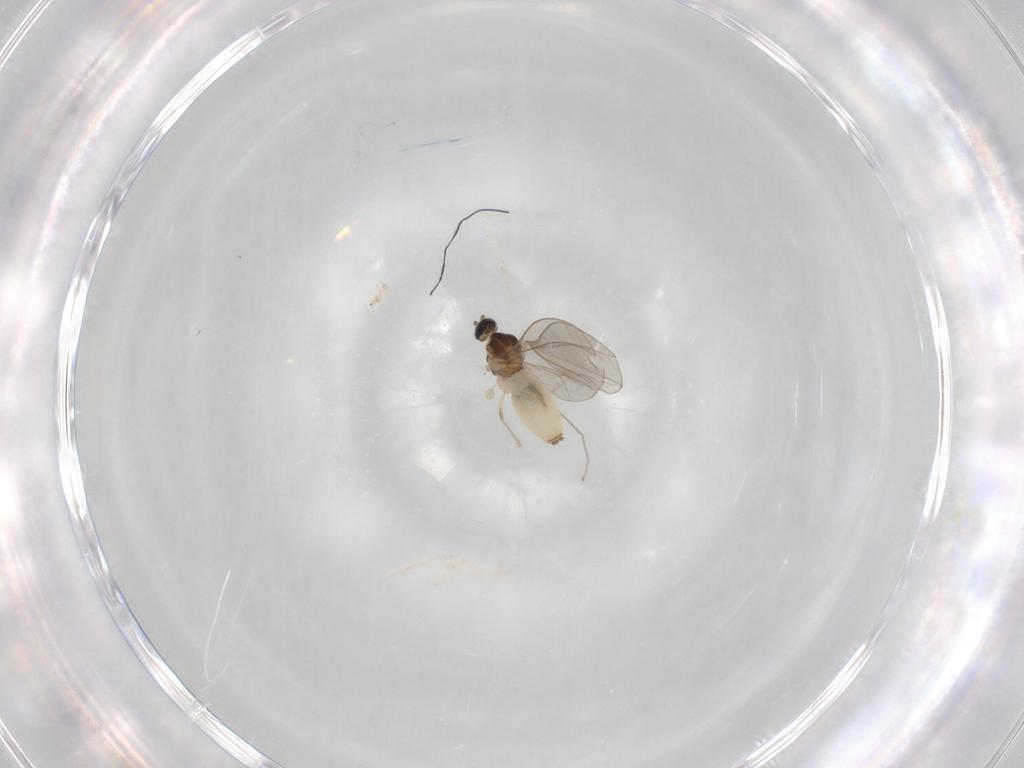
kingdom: Animalia
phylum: Arthropoda
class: Insecta
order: Diptera
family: Cecidomyiidae
